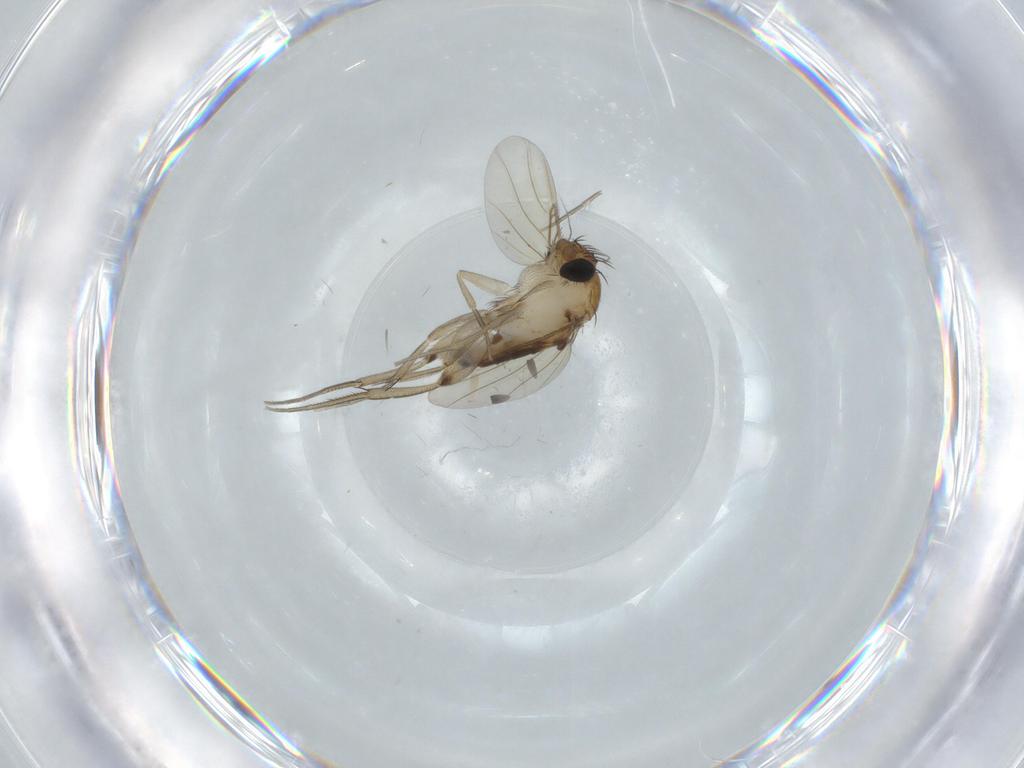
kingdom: Animalia
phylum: Arthropoda
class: Insecta
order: Diptera
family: Phoridae
